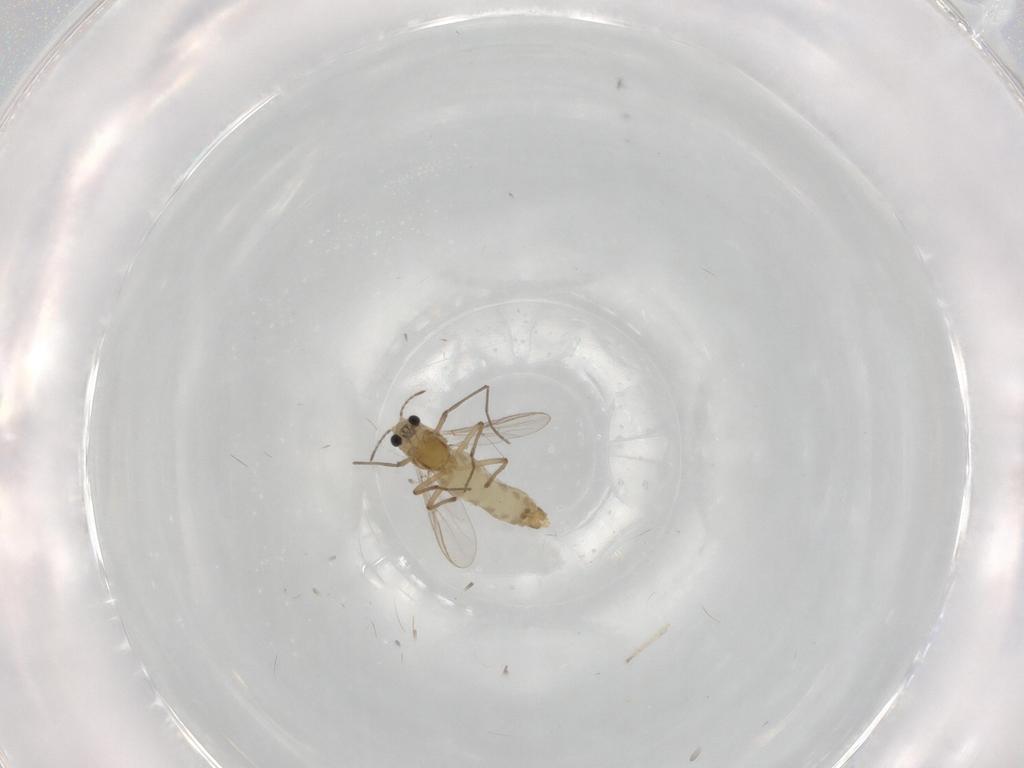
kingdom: Animalia
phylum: Arthropoda
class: Insecta
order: Diptera
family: Chironomidae
